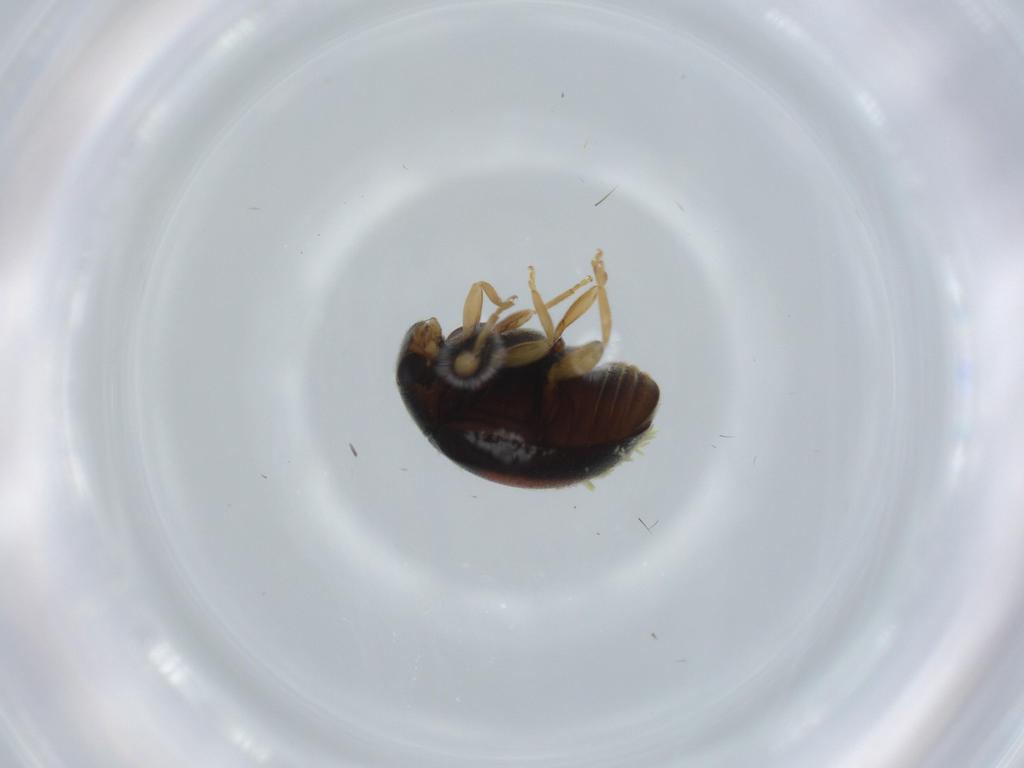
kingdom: Animalia
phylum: Arthropoda
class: Insecta
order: Coleoptera
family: Coccinellidae
